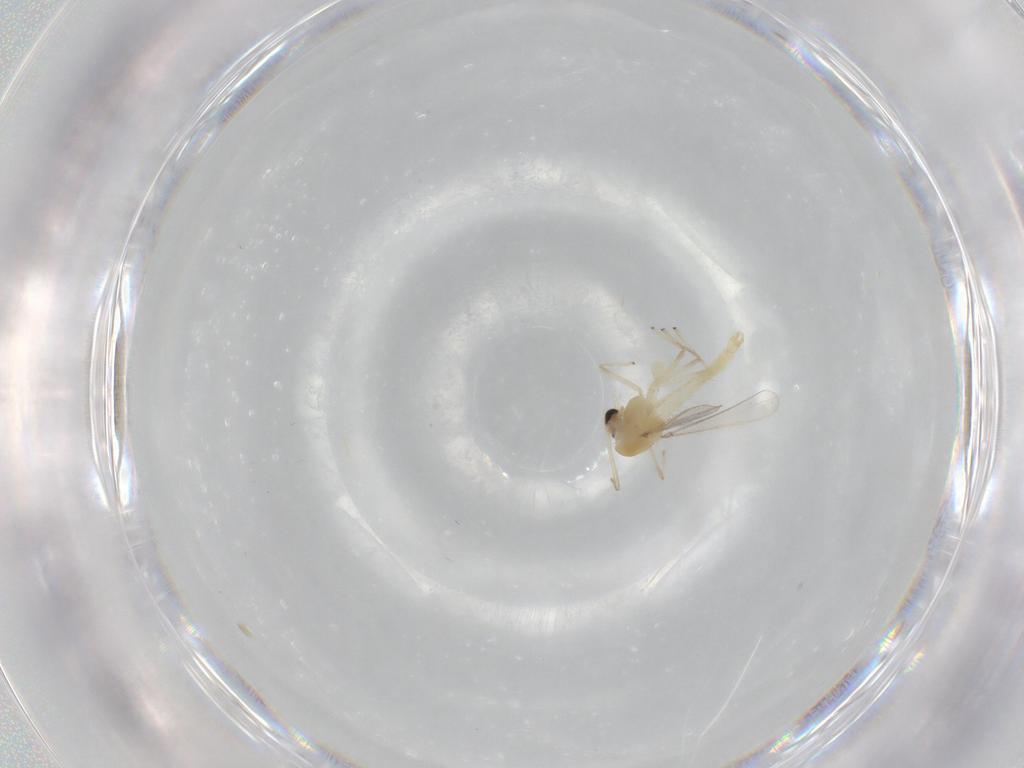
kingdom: Animalia
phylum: Arthropoda
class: Insecta
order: Diptera
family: Chironomidae
